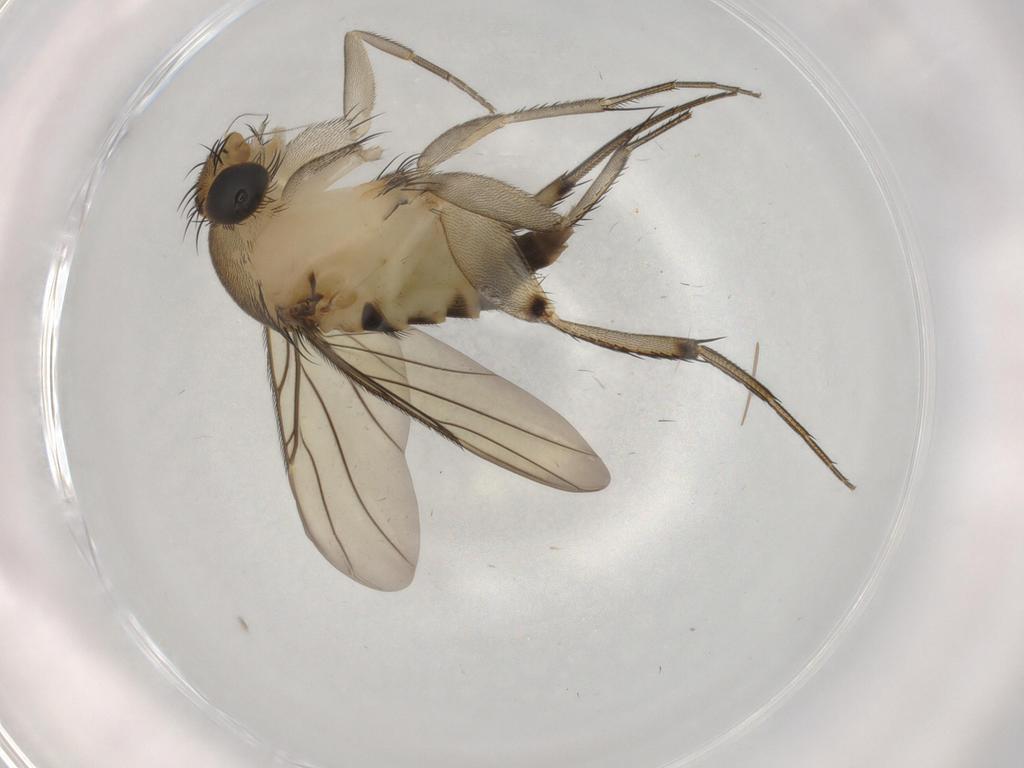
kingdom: Animalia
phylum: Arthropoda
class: Insecta
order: Diptera
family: Phoridae
